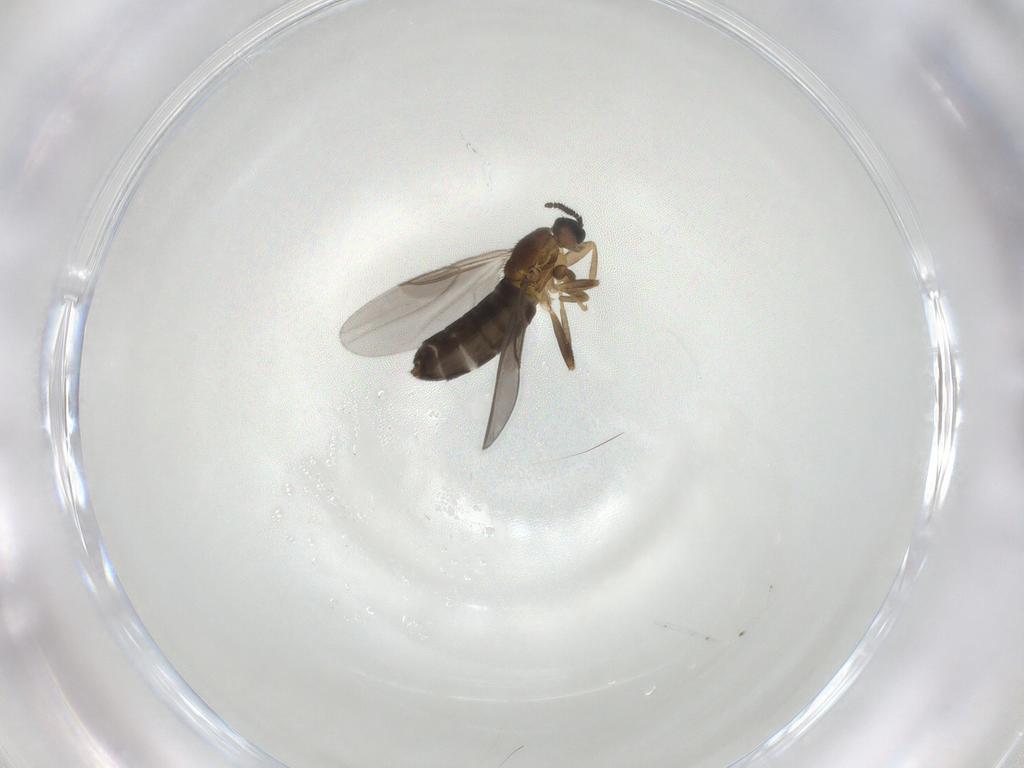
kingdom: Animalia
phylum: Arthropoda
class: Insecta
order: Diptera
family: Scatopsidae
